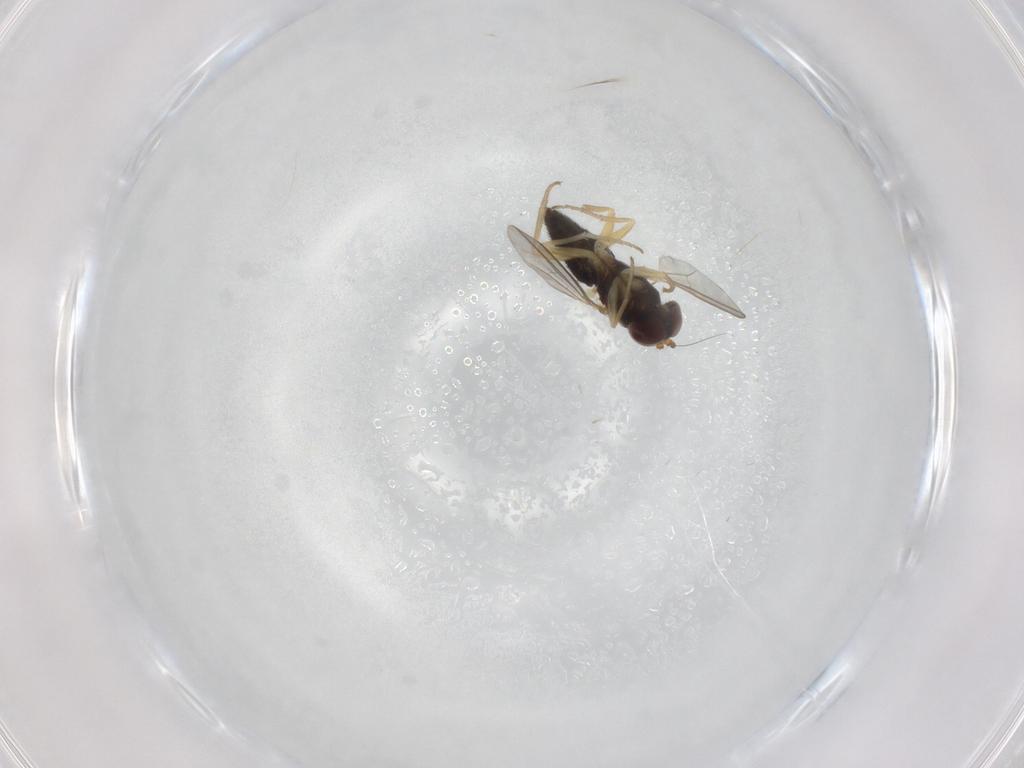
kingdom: Animalia
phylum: Arthropoda
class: Insecta
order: Diptera
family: Dolichopodidae
